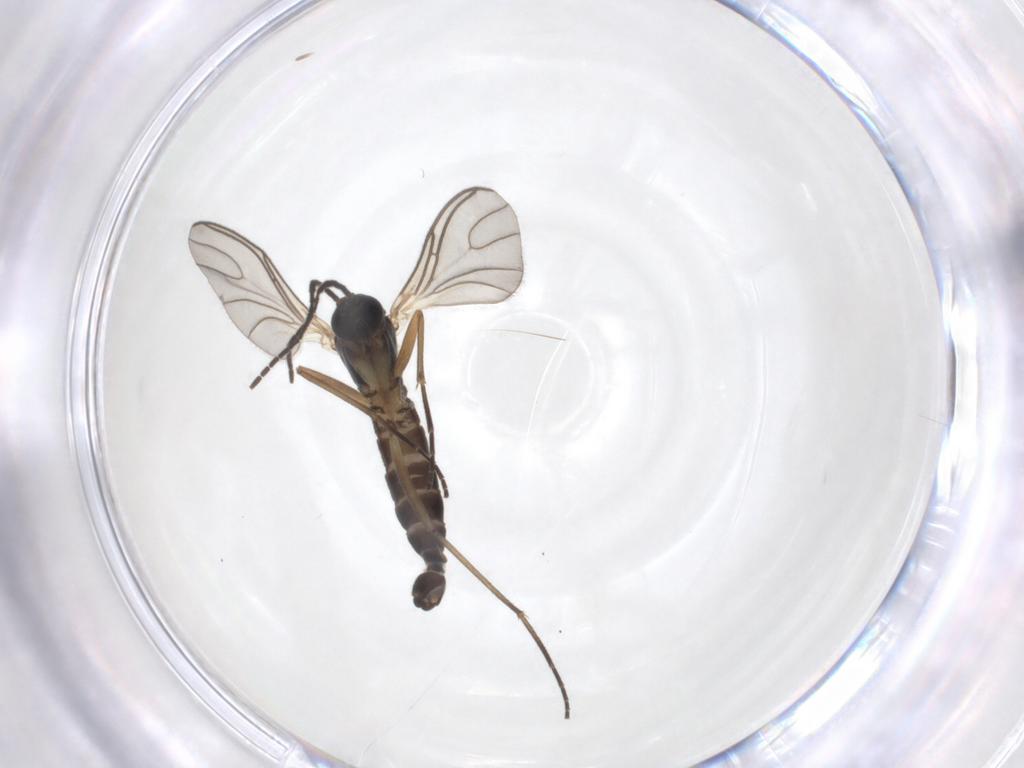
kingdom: Animalia
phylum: Arthropoda
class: Insecta
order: Diptera
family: Sciaridae
